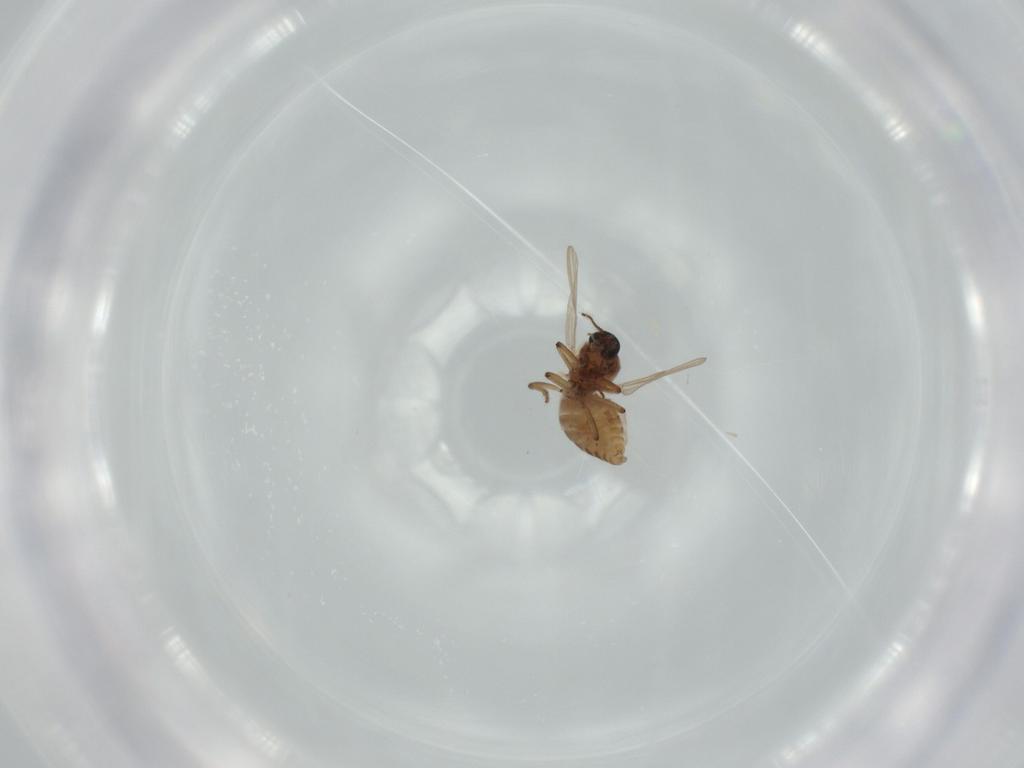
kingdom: Animalia
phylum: Arthropoda
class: Insecta
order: Diptera
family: Ceratopogonidae
